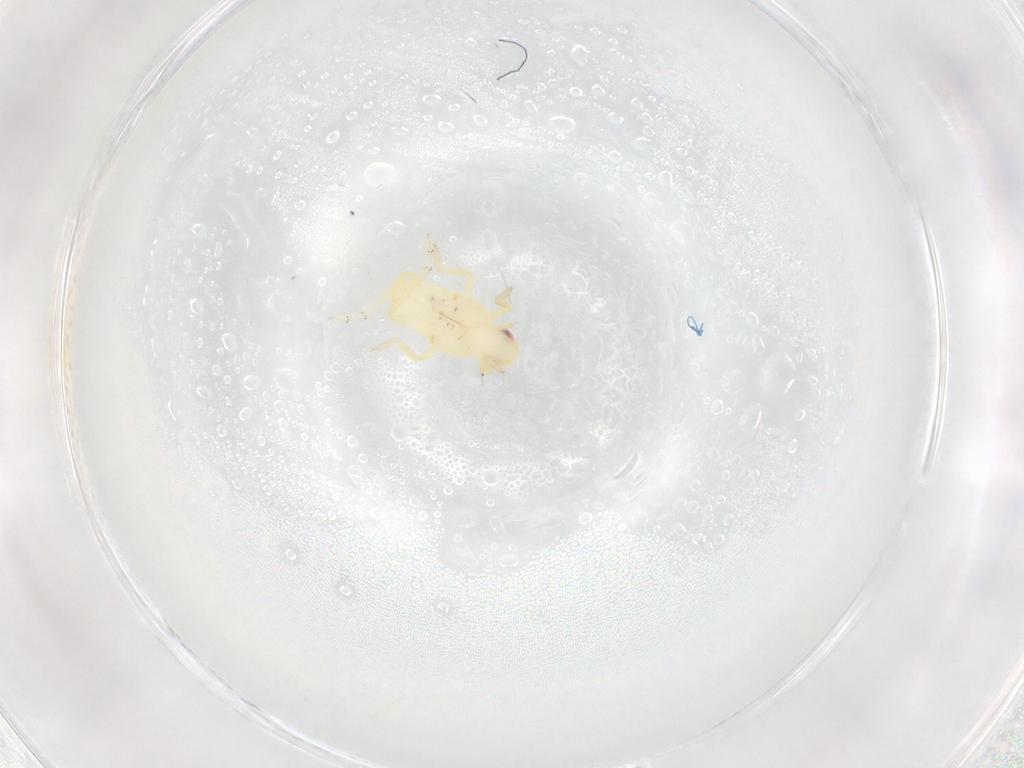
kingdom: Animalia
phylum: Arthropoda
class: Insecta
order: Hemiptera
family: Tropiduchidae
